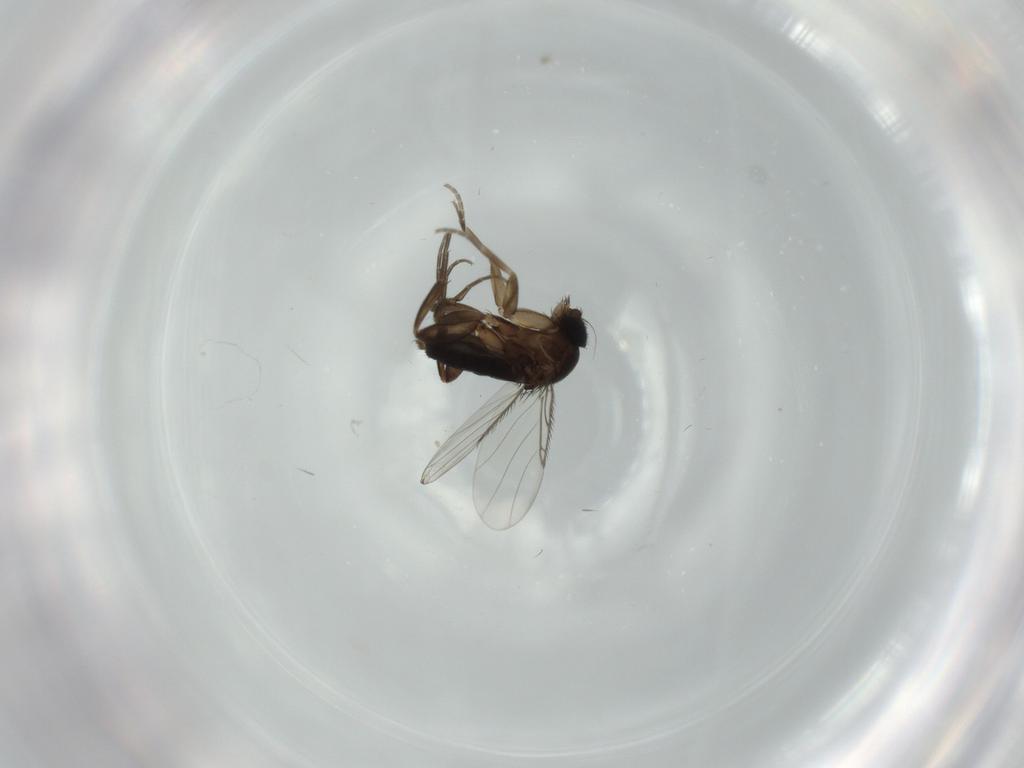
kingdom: Animalia
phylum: Arthropoda
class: Insecta
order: Diptera
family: Phoridae
